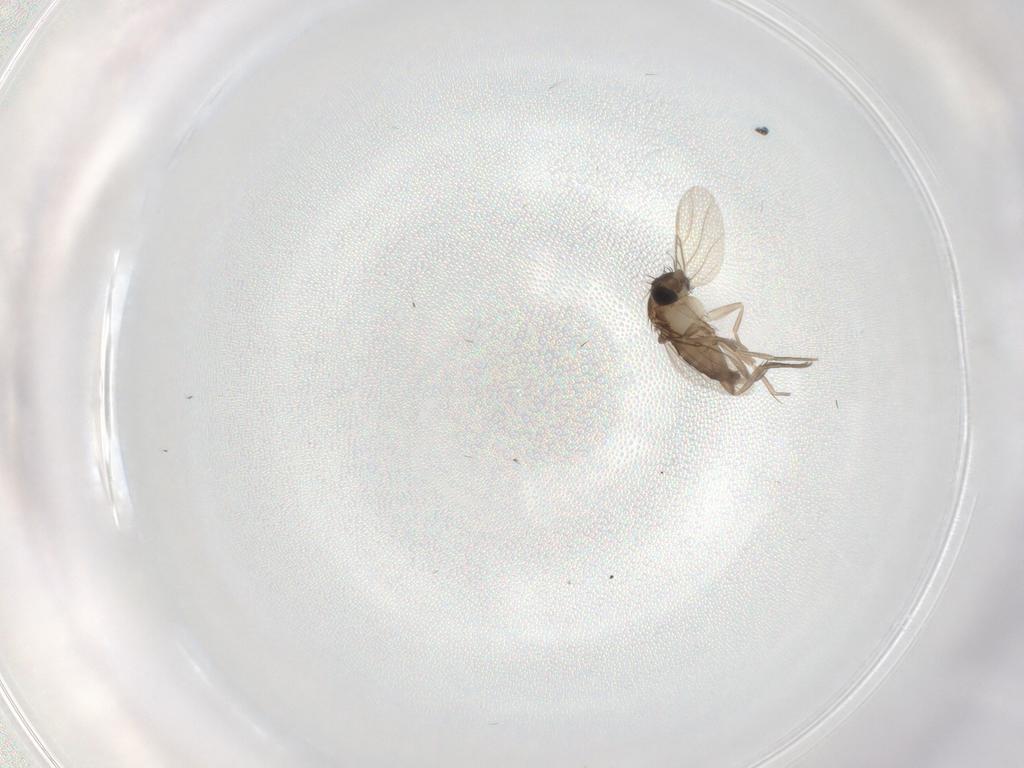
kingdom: Animalia
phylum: Arthropoda
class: Insecta
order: Diptera
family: Phoridae
